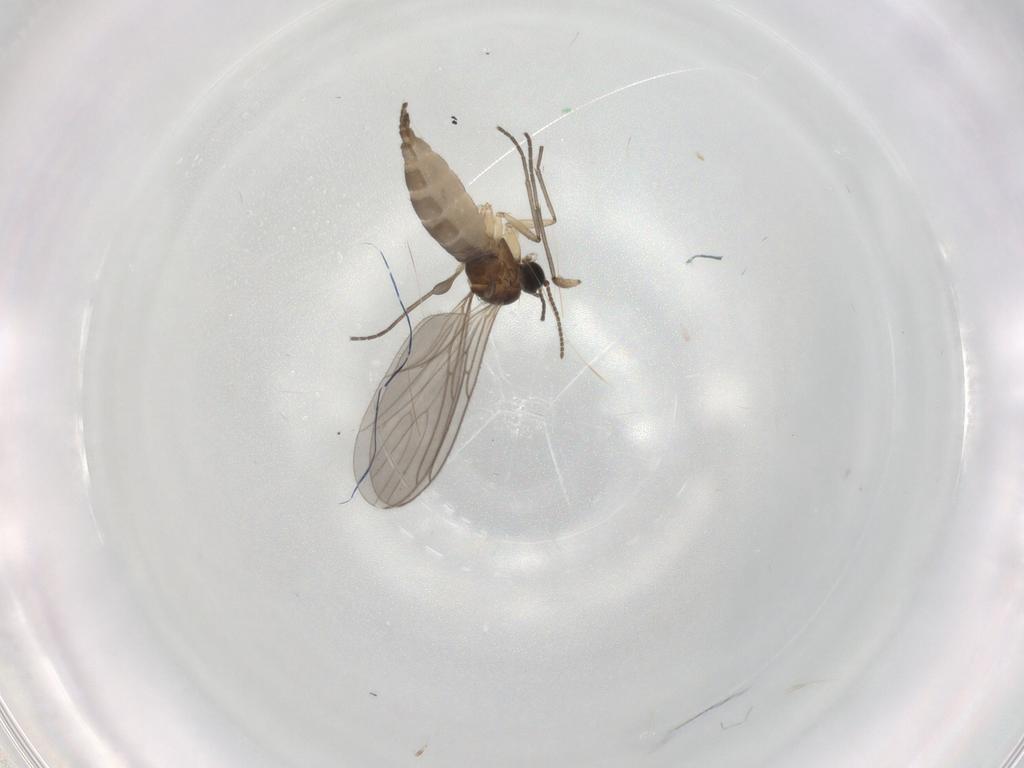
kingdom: Animalia
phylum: Arthropoda
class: Insecta
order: Diptera
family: Sciaridae
